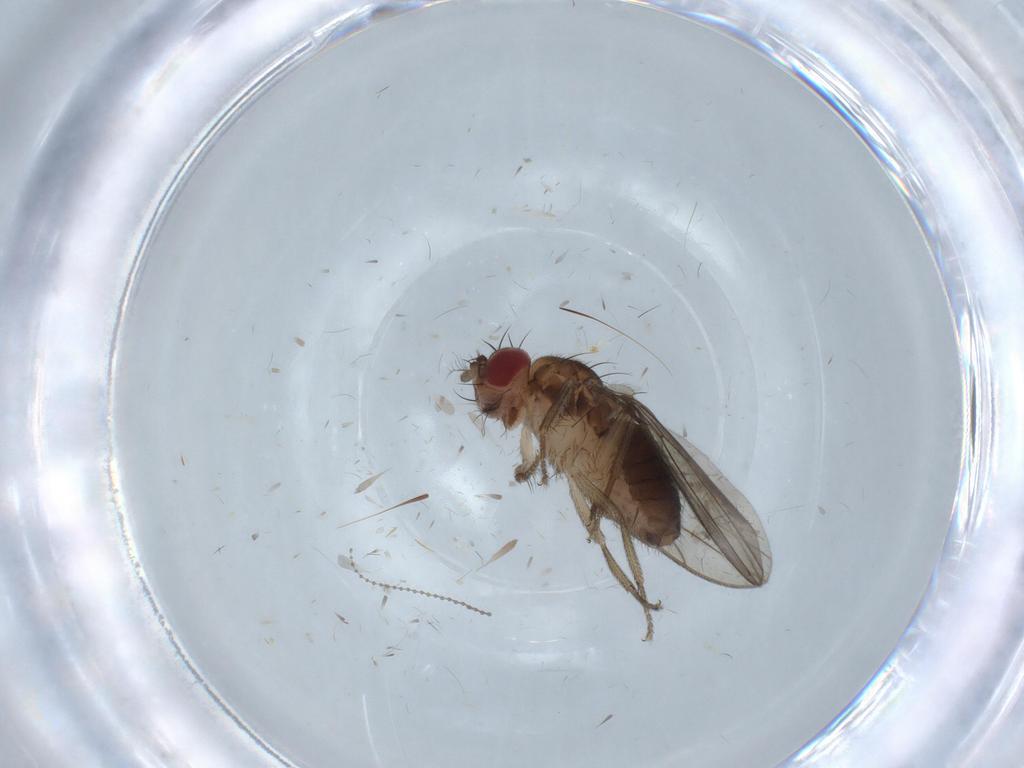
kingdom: Animalia
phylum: Arthropoda
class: Insecta
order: Diptera
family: Drosophilidae
